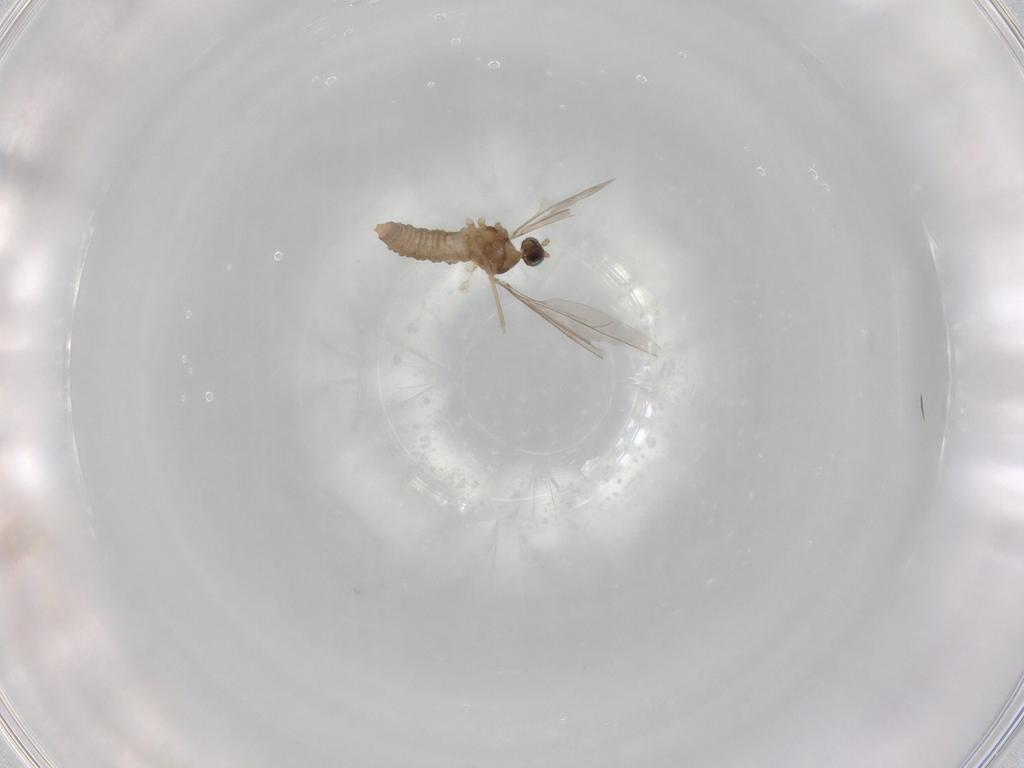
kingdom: Animalia
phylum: Arthropoda
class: Insecta
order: Diptera
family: Cecidomyiidae
